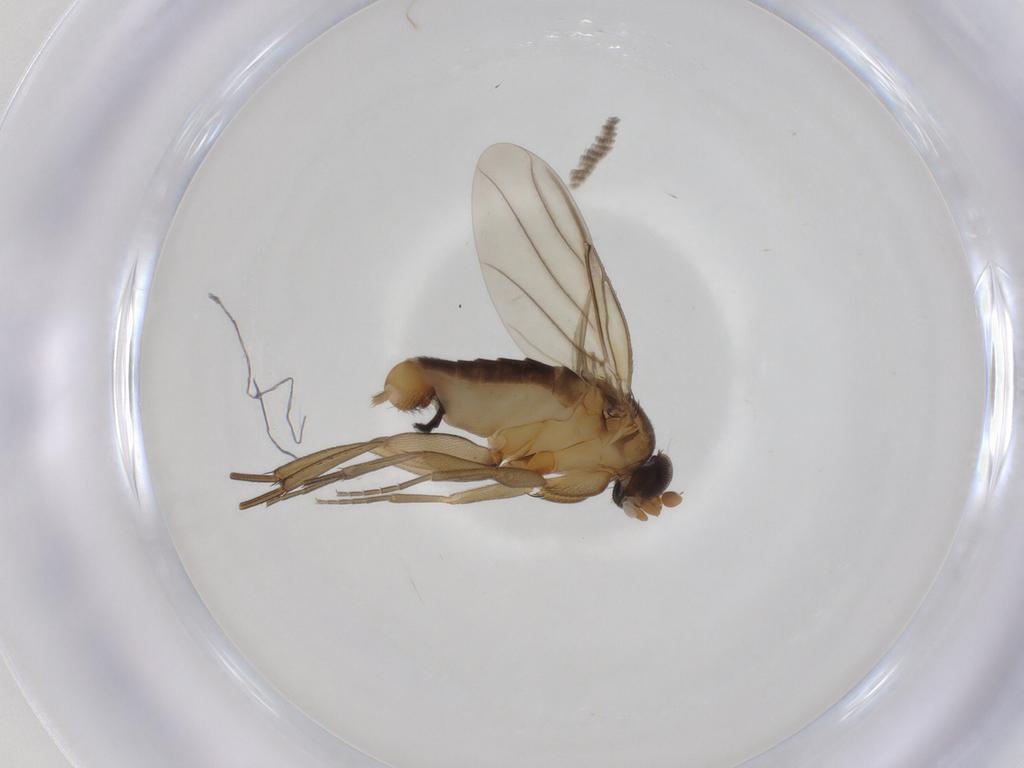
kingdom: Animalia
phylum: Arthropoda
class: Insecta
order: Diptera
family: Phoridae
